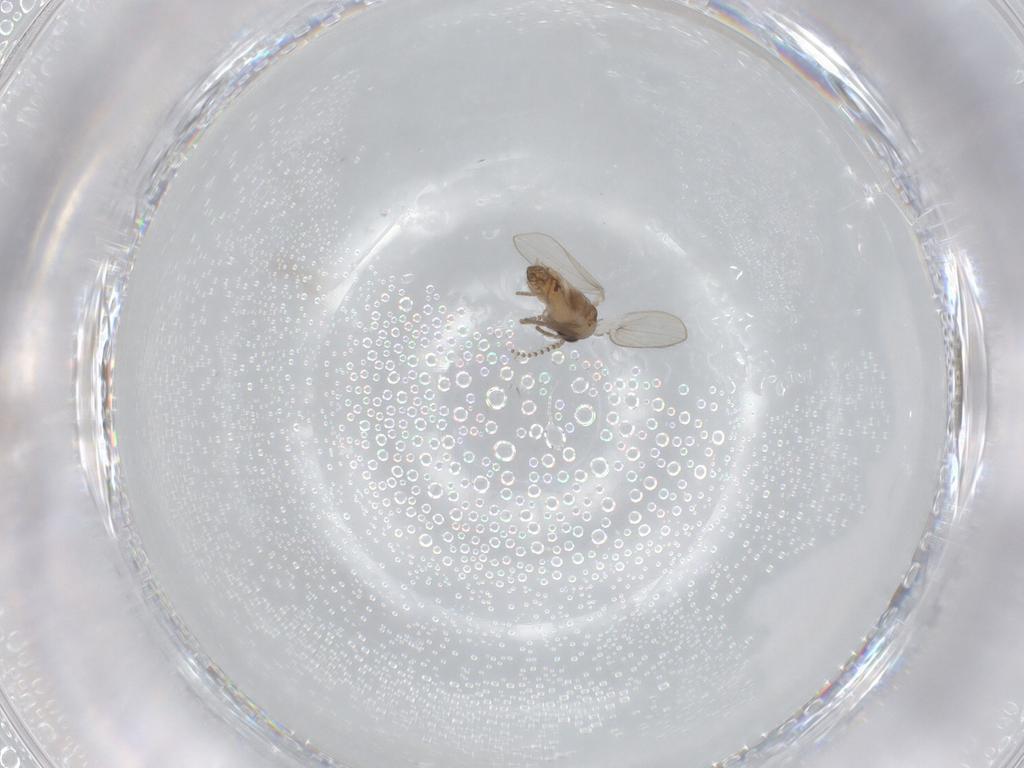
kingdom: Animalia
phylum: Arthropoda
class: Insecta
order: Diptera
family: Psychodidae
